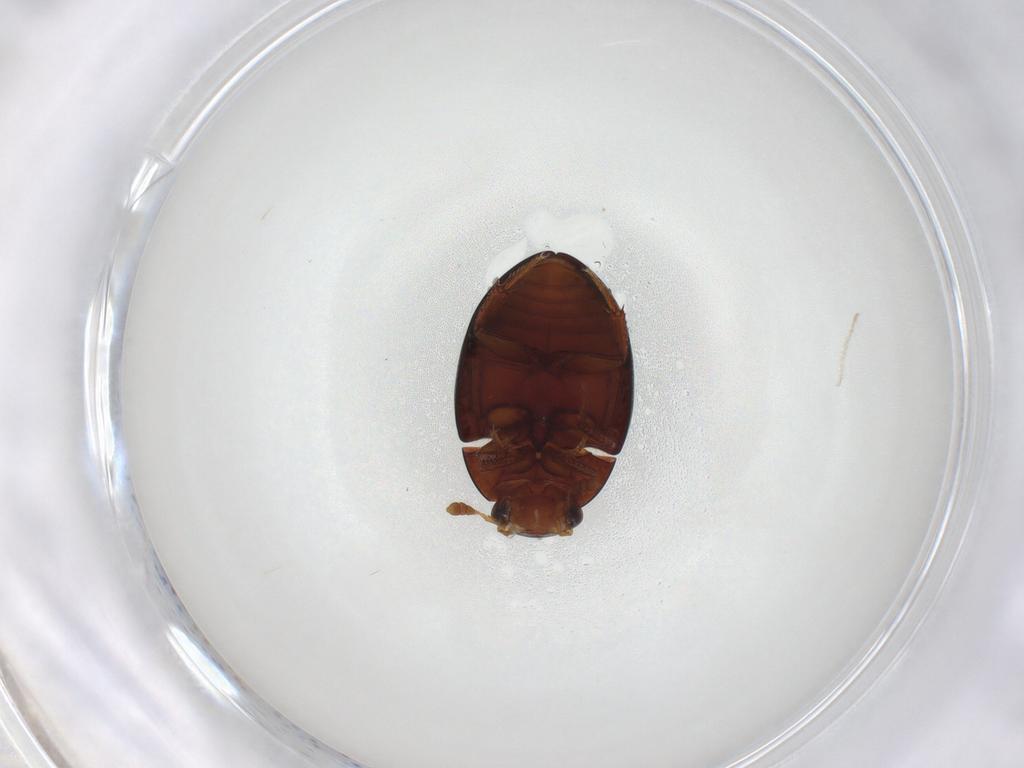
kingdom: Animalia
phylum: Arthropoda
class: Insecta
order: Coleoptera
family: Hydrophilidae
